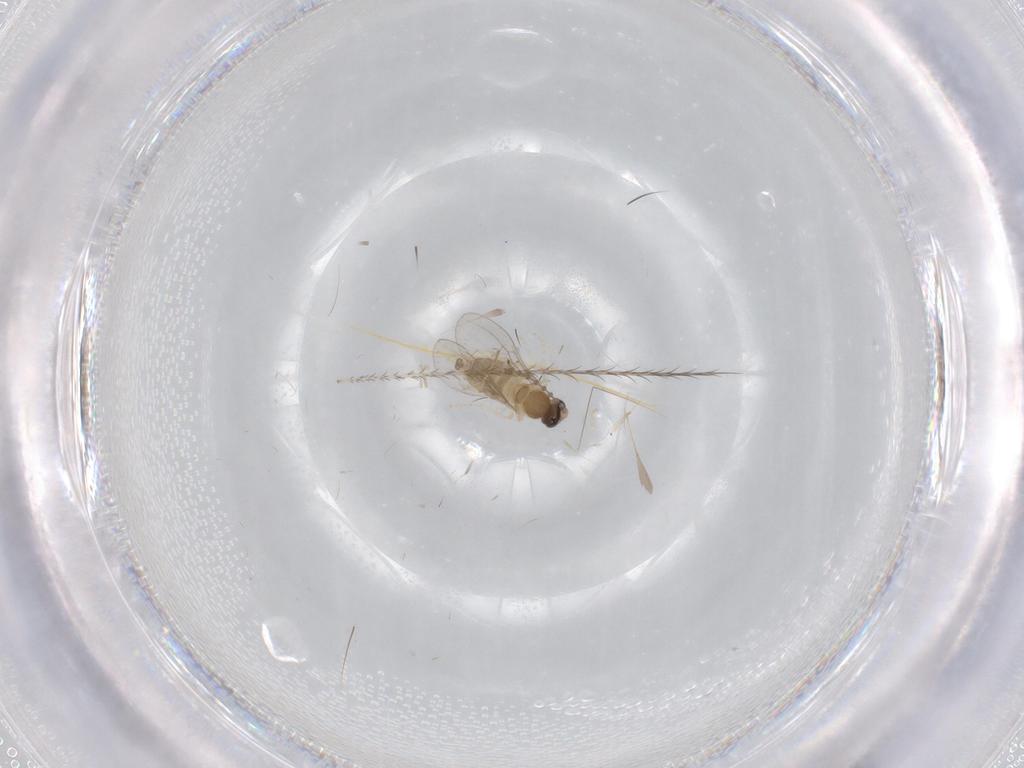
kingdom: Animalia
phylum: Arthropoda
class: Insecta
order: Diptera
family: Cecidomyiidae
